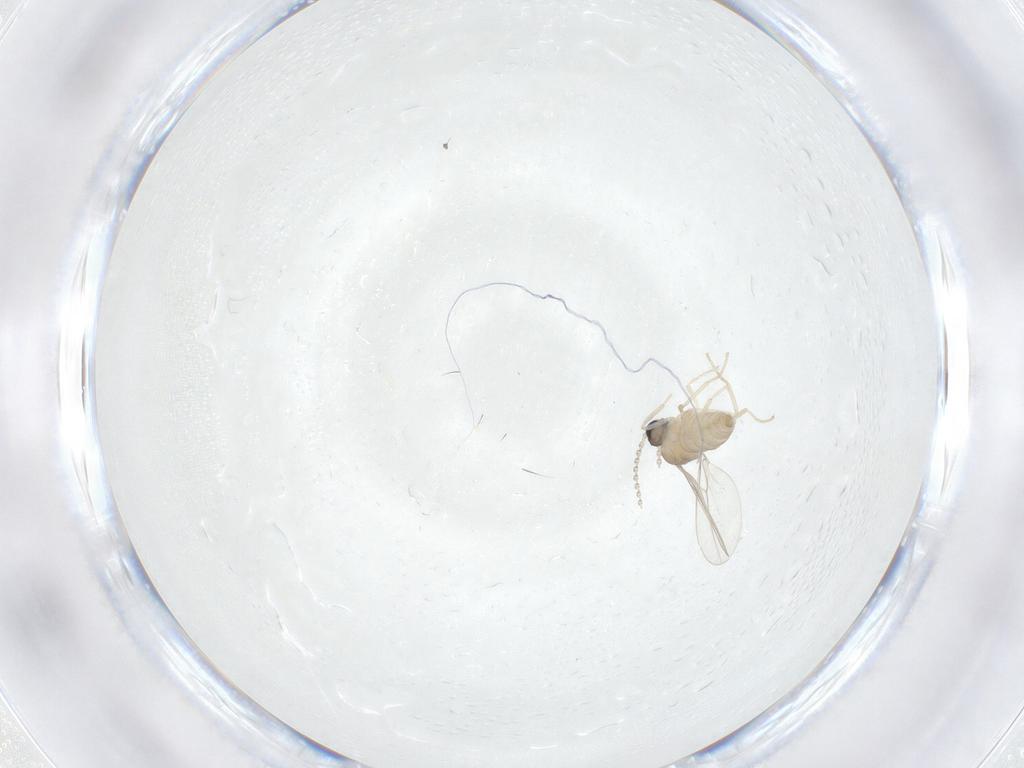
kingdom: Animalia
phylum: Arthropoda
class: Insecta
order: Diptera
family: Cecidomyiidae
